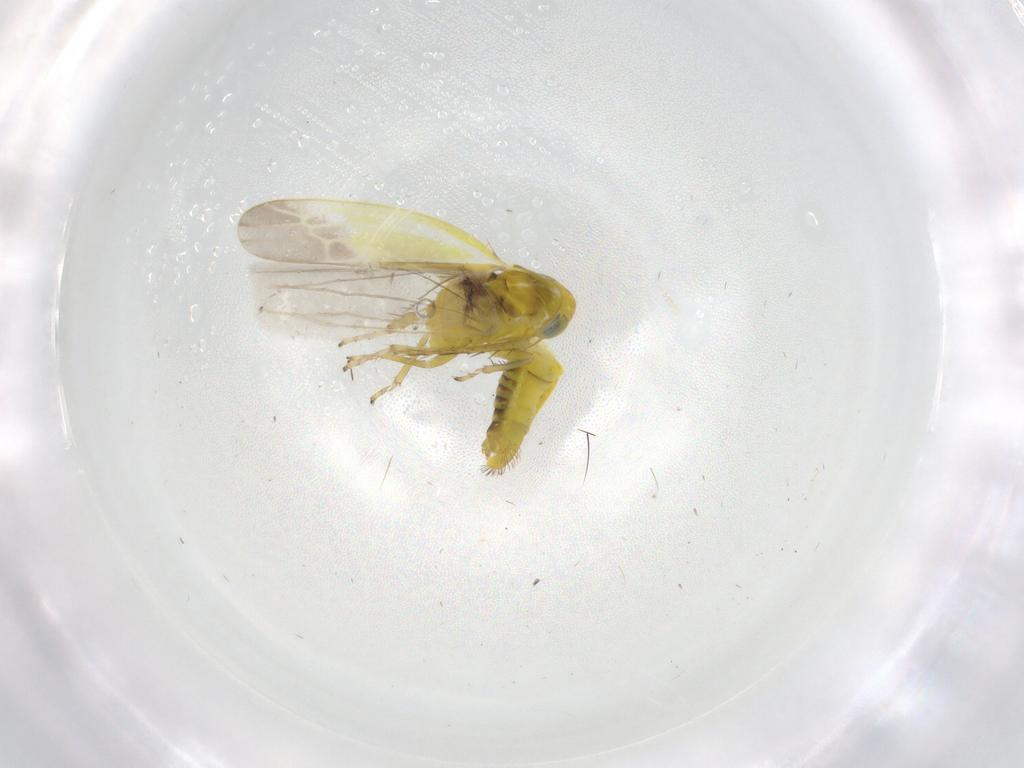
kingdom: Animalia
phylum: Arthropoda
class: Insecta
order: Hemiptera
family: Cicadellidae
